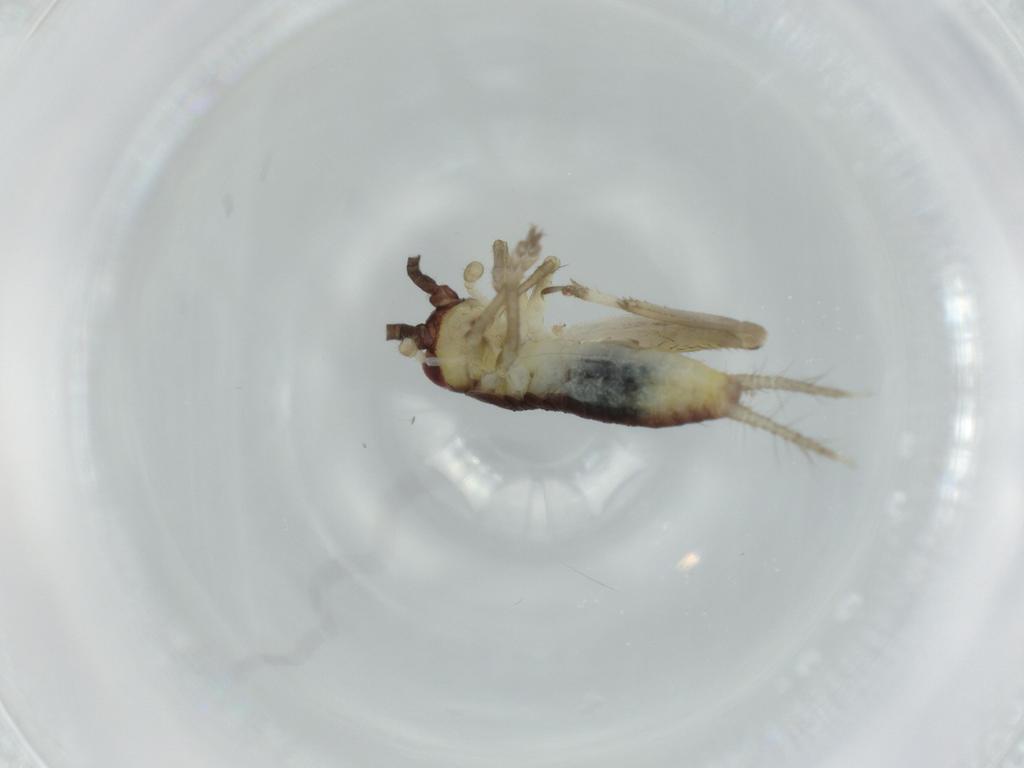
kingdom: Animalia
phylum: Arthropoda
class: Insecta
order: Orthoptera
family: Gryllidae
